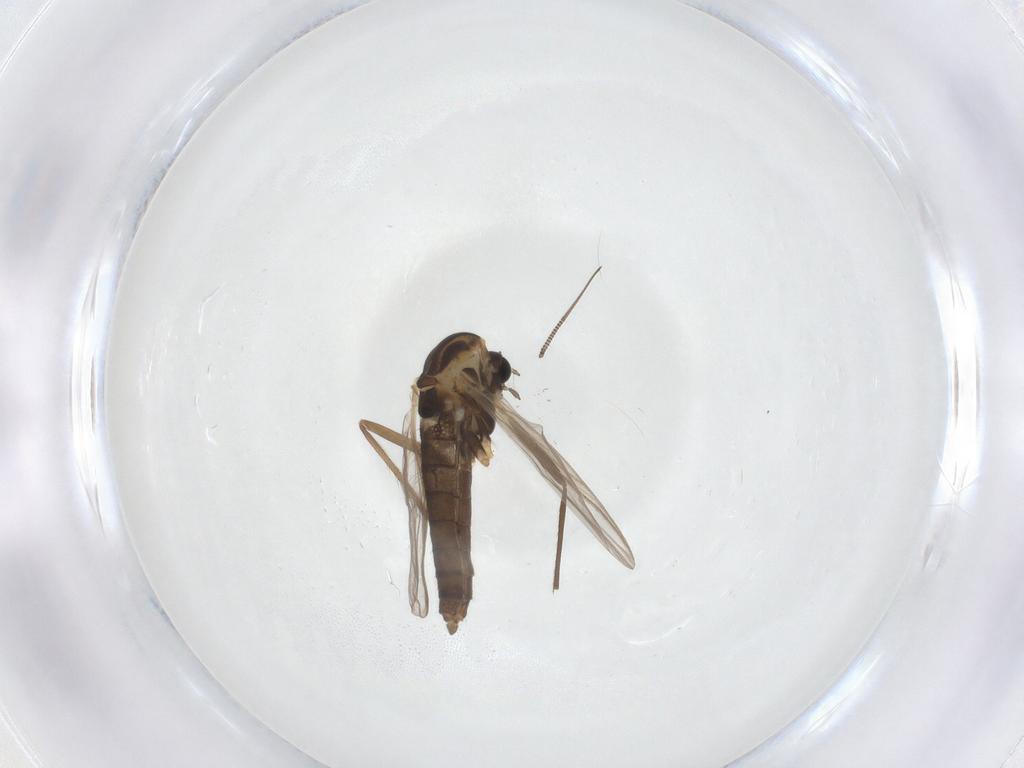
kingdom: Animalia
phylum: Arthropoda
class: Insecta
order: Diptera
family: Chironomidae
